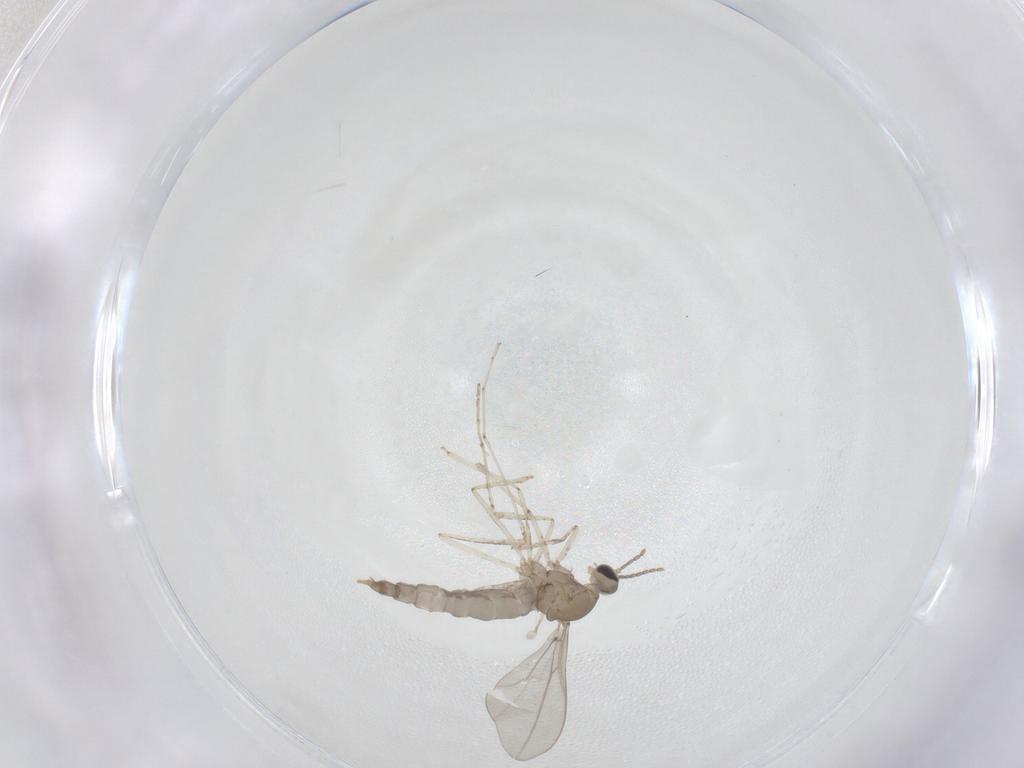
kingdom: Animalia
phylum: Arthropoda
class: Insecta
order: Diptera
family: Cecidomyiidae
